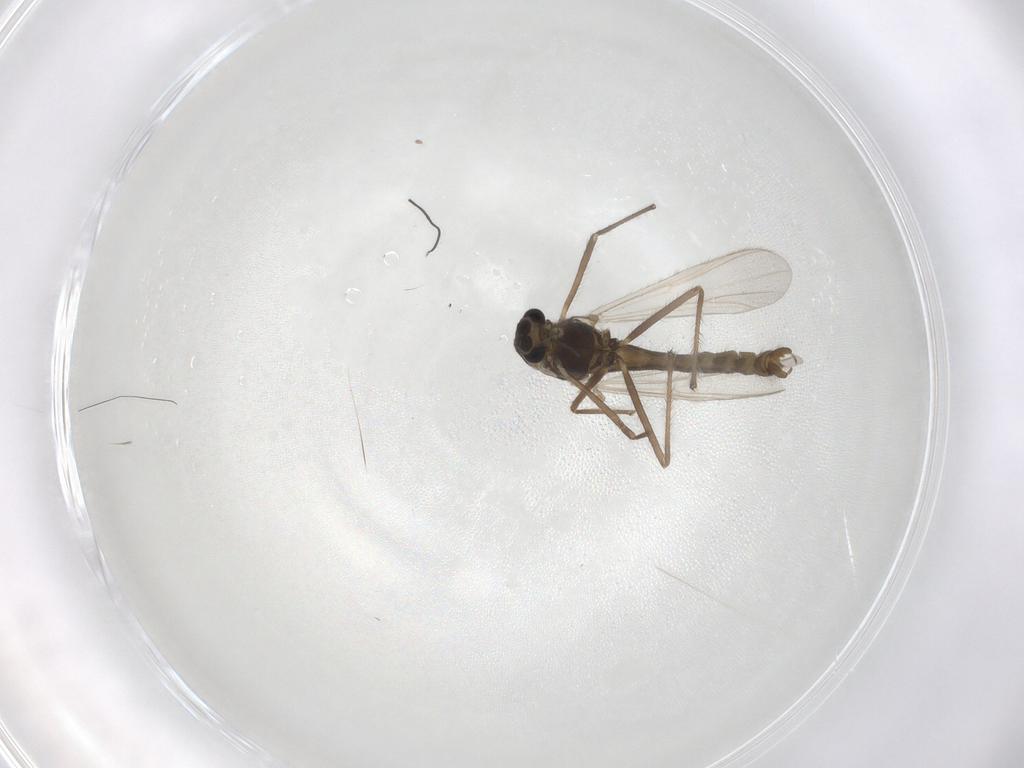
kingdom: Animalia
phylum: Arthropoda
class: Insecta
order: Diptera
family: Chironomidae
